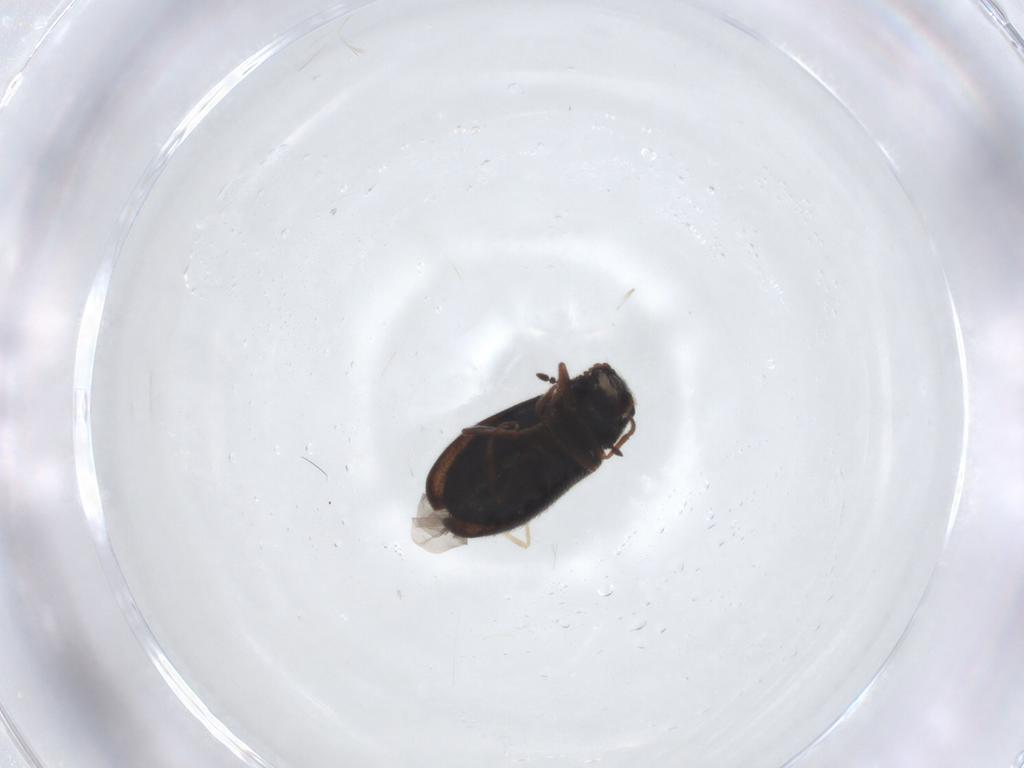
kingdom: Animalia
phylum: Arthropoda
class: Insecta
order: Coleoptera
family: Melyridae
